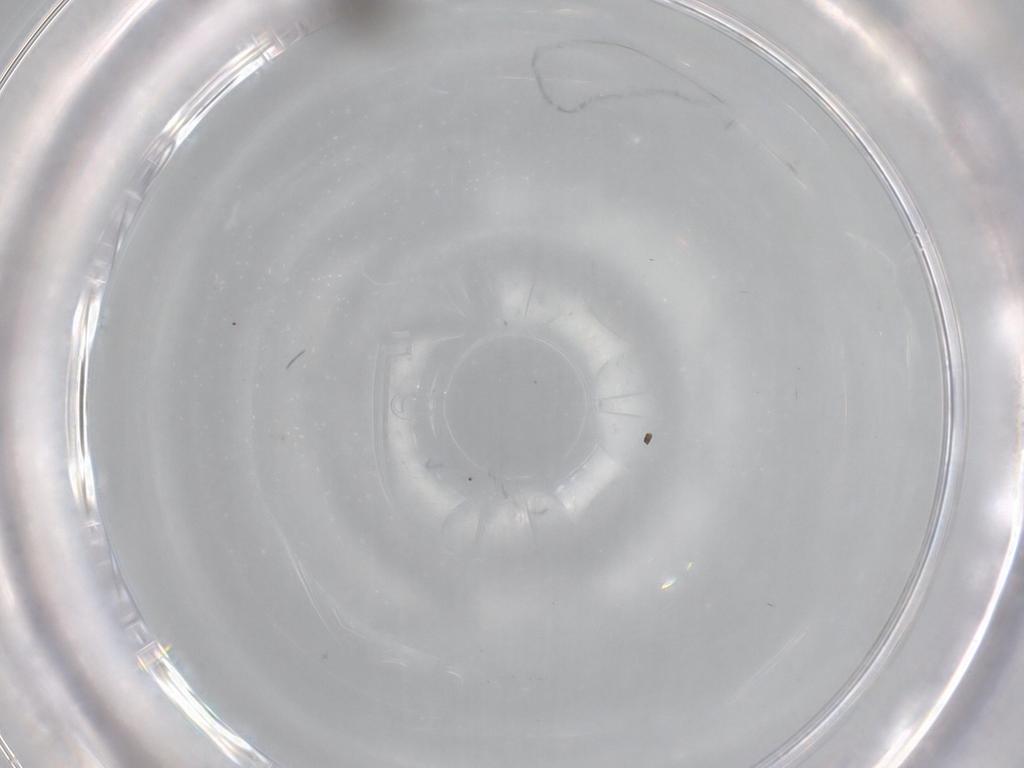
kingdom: Animalia
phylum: Arthropoda
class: Insecta
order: Diptera
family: Sciaridae
